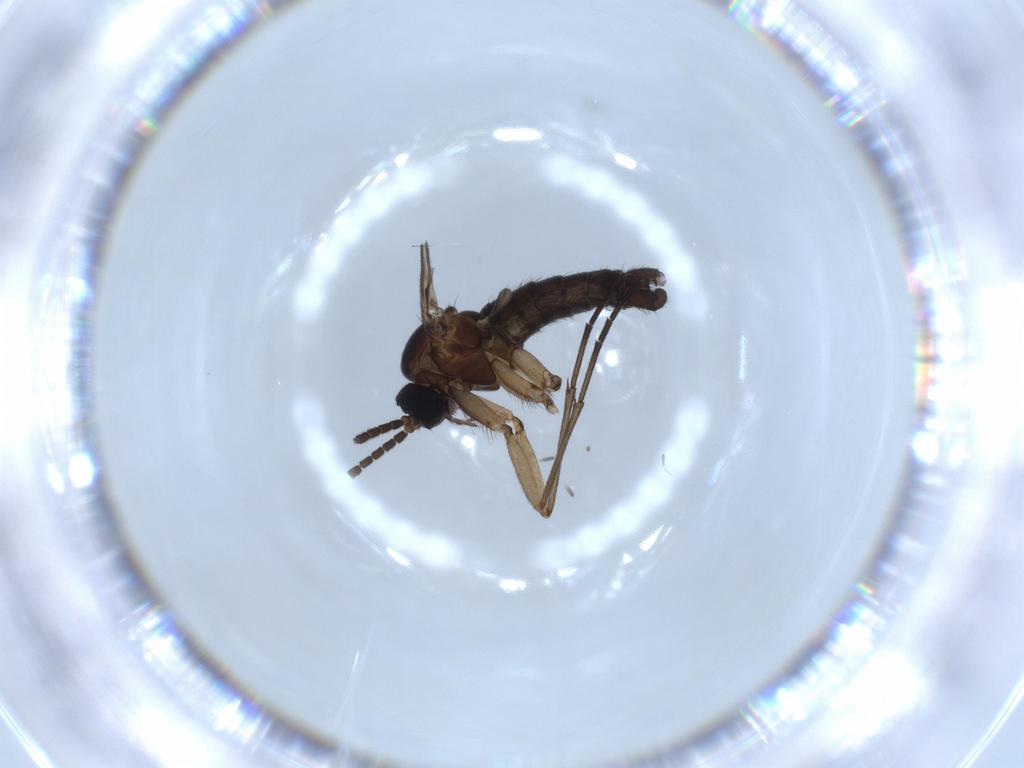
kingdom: Animalia
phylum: Arthropoda
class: Insecta
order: Diptera
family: Sciaridae
